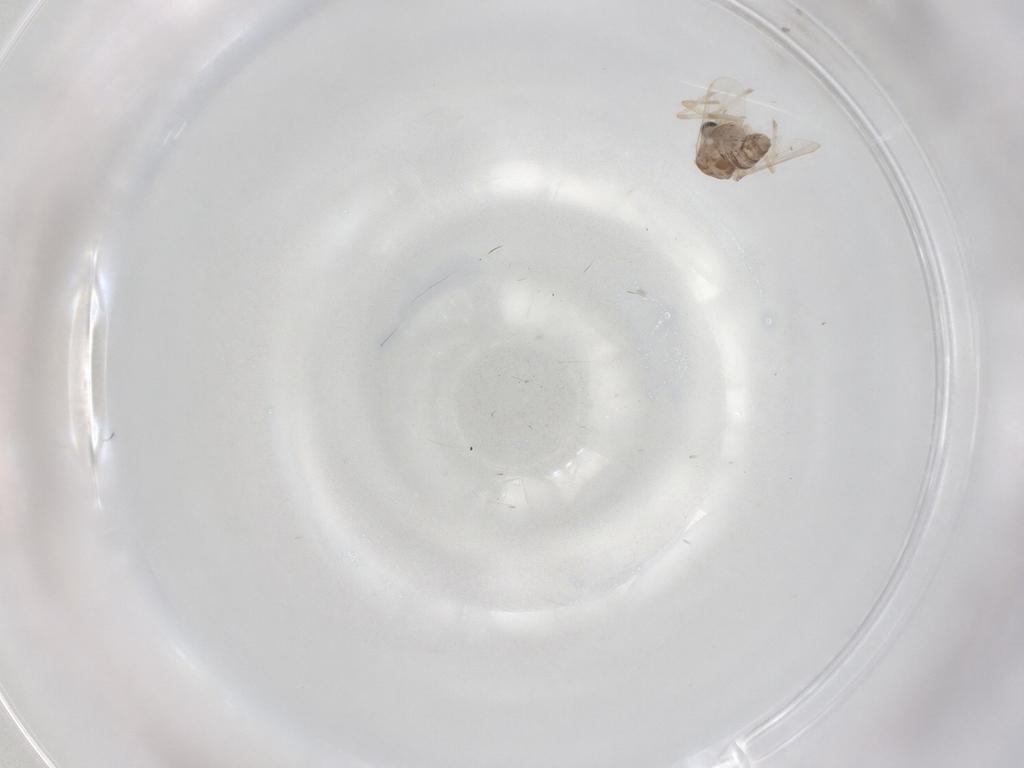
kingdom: Animalia
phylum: Arthropoda
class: Insecta
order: Diptera
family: Chironomidae
